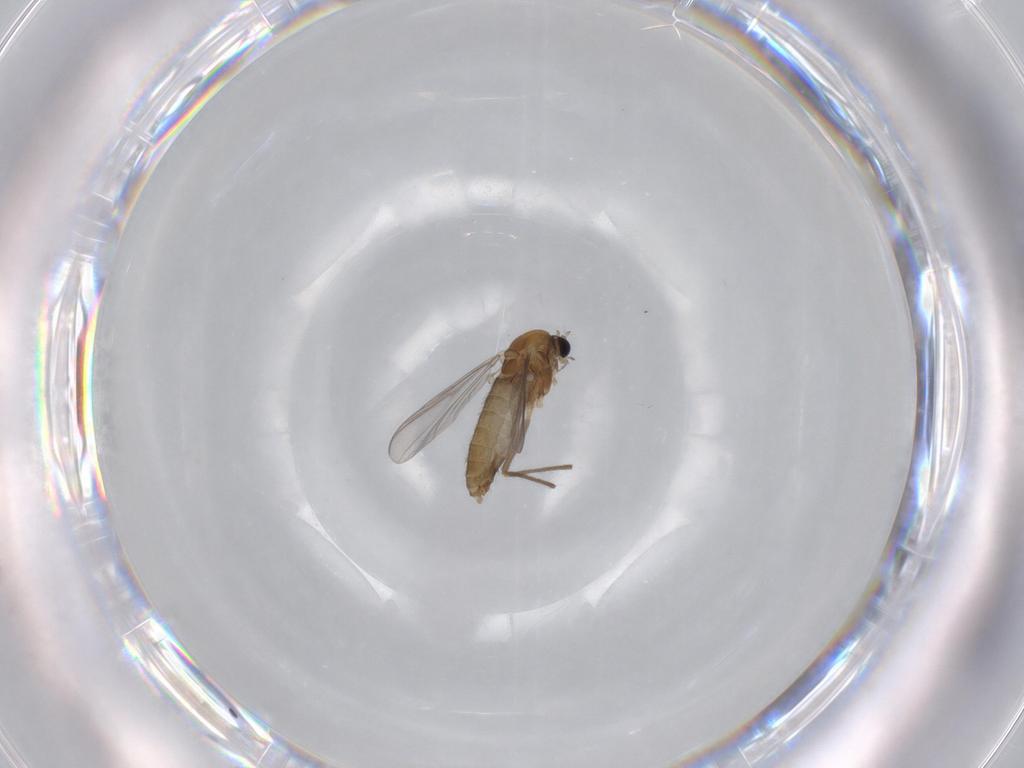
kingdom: Animalia
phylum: Arthropoda
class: Insecta
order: Diptera
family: Chironomidae
